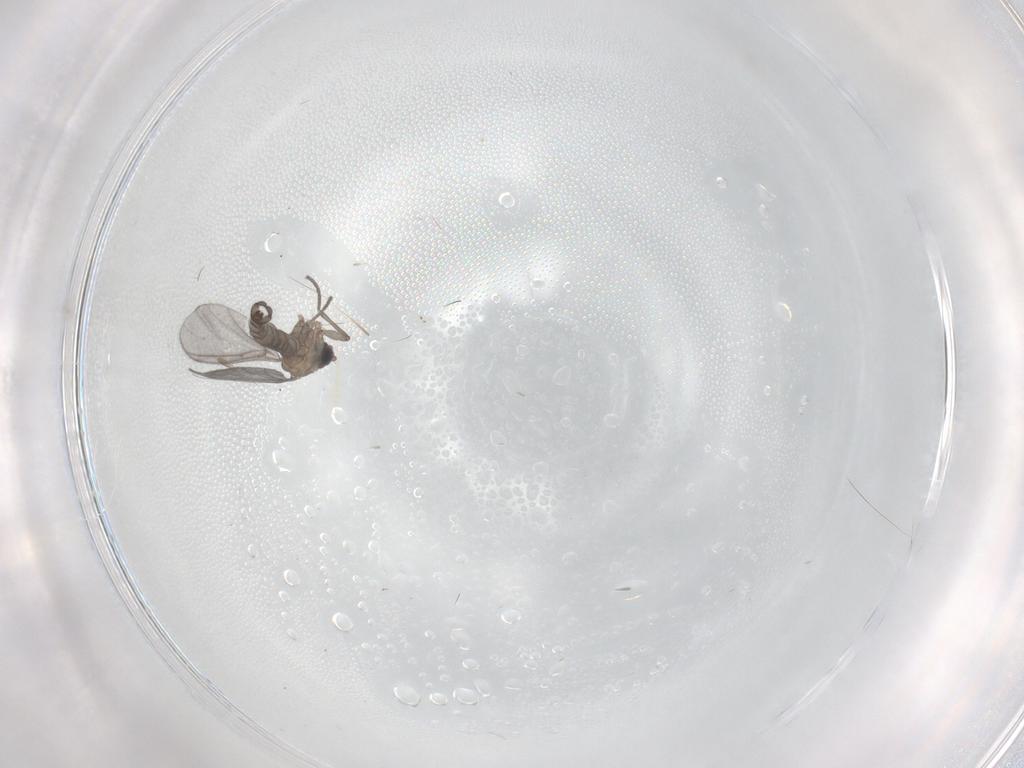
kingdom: Animalia
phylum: Arthropoda
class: Insecta
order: Diptera
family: Sciaridae
